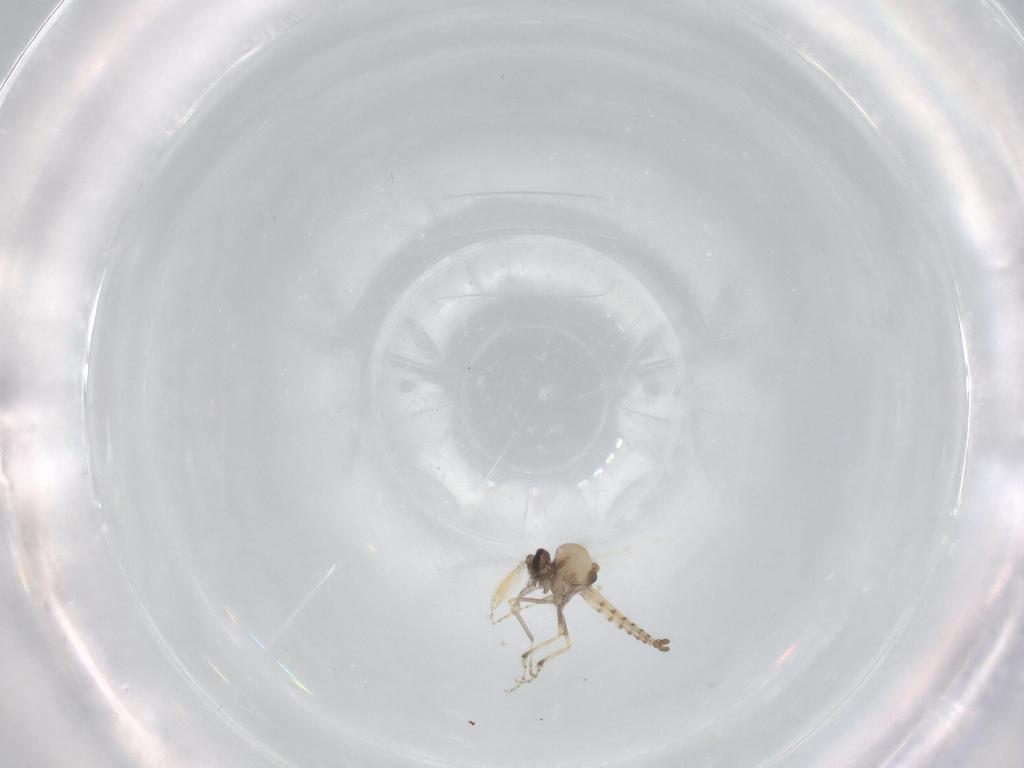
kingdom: Animalia
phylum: Arthropoda
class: Insecta
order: Diptera
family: Ceratopogonidae
